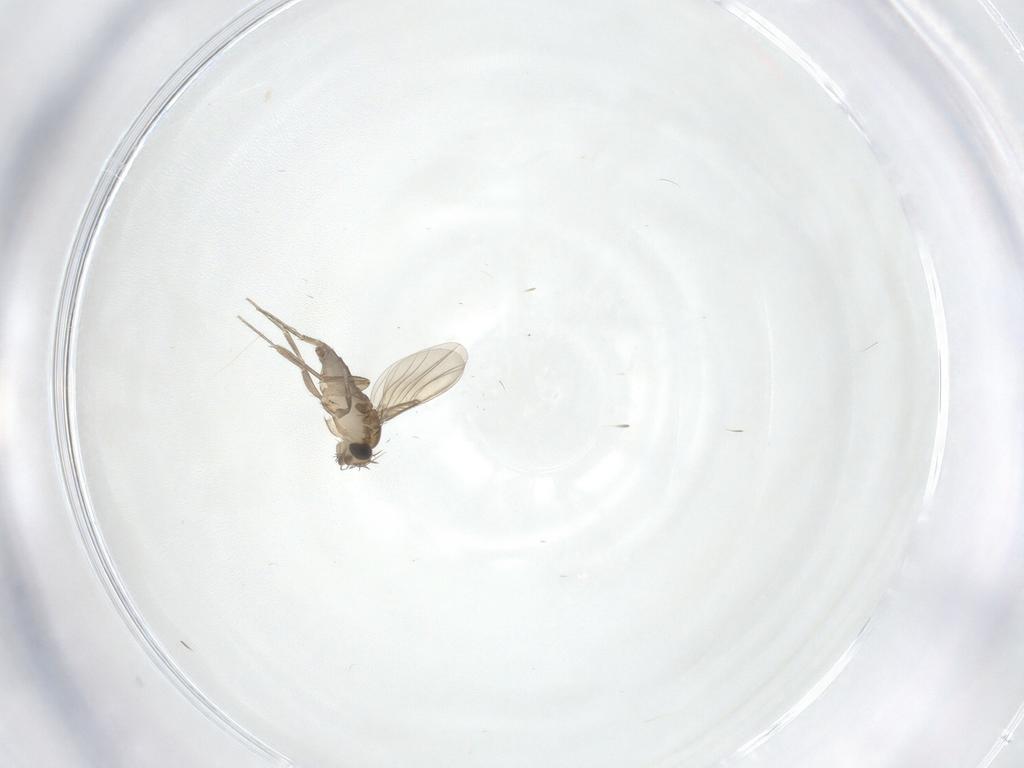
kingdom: Animalia
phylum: Arthropoda
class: Insecta
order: Diptera
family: Phoridae
